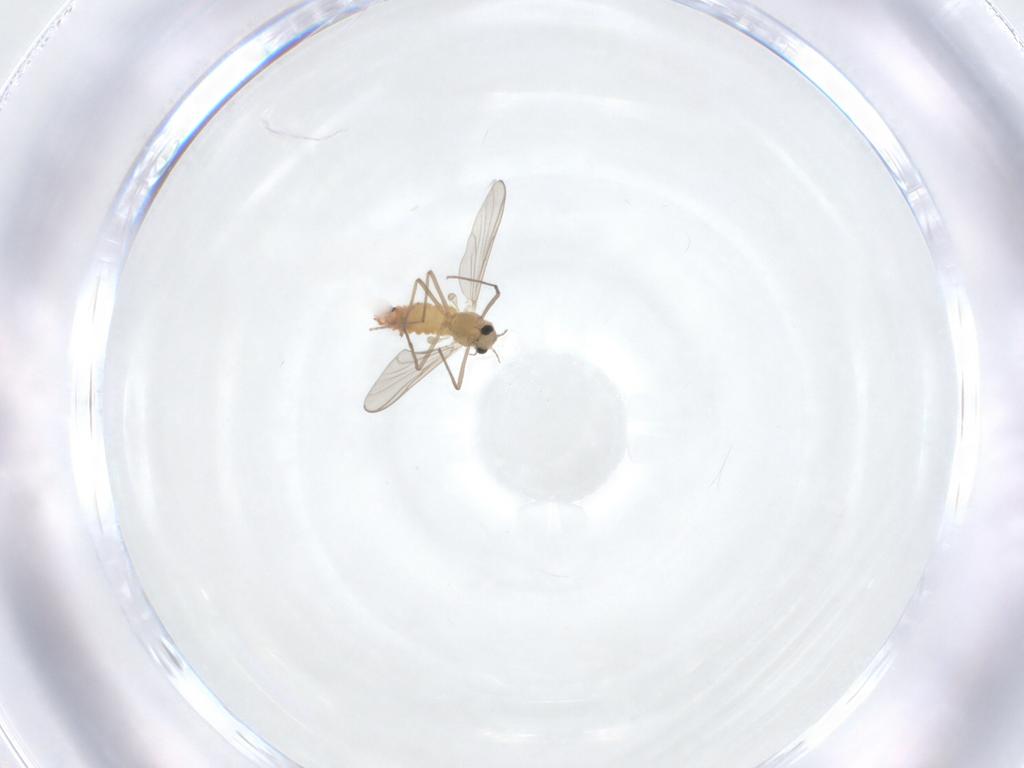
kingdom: Animalia
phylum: Arthropoda
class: Insecta
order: Diptera
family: Chironomidae
